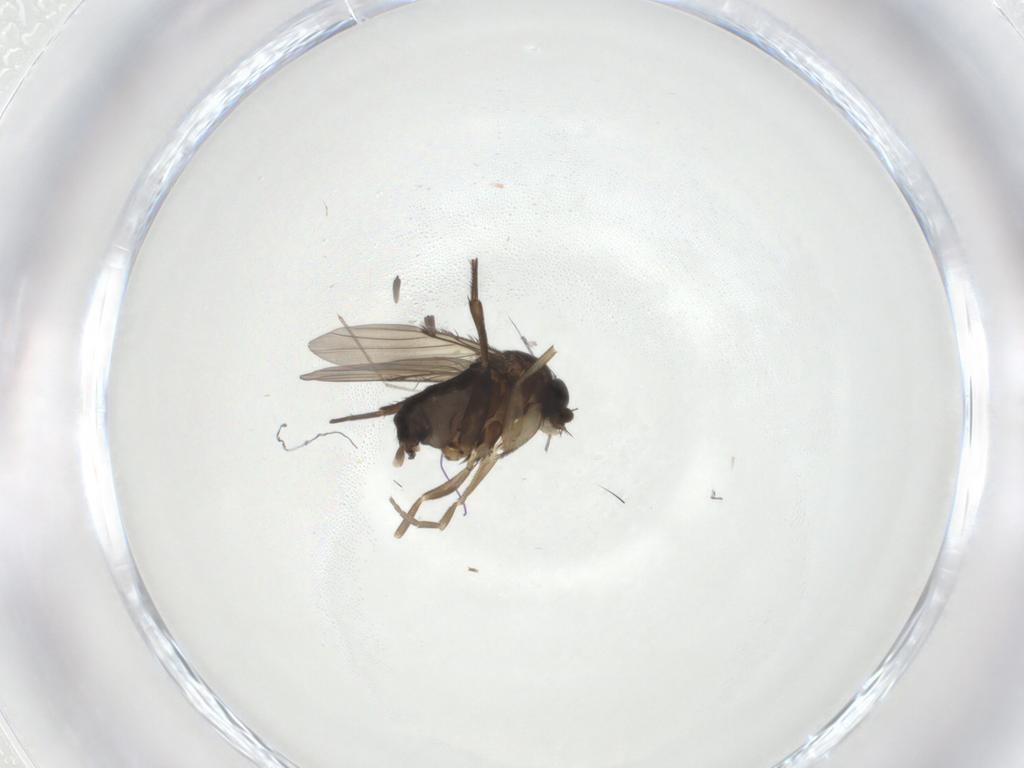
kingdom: Animalia
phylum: Arthropoda
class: Insecta
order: Diptera
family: Phoridae
